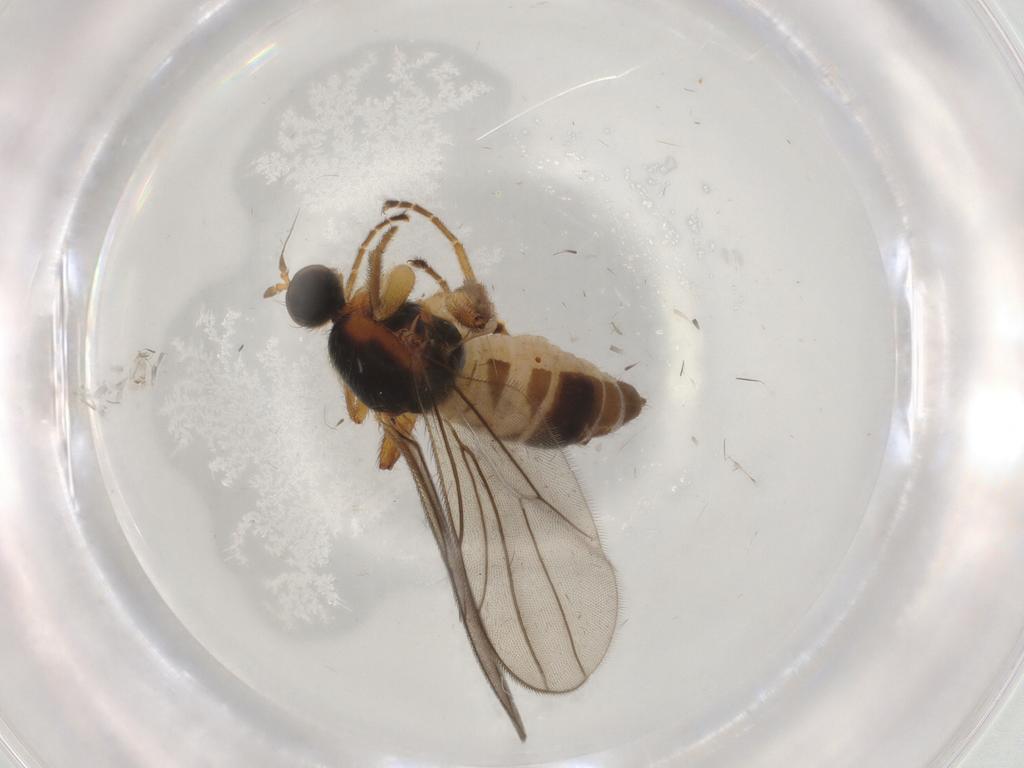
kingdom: Animalia
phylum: Arthropoda
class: Insecta
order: Diptera
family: Hybotidae
